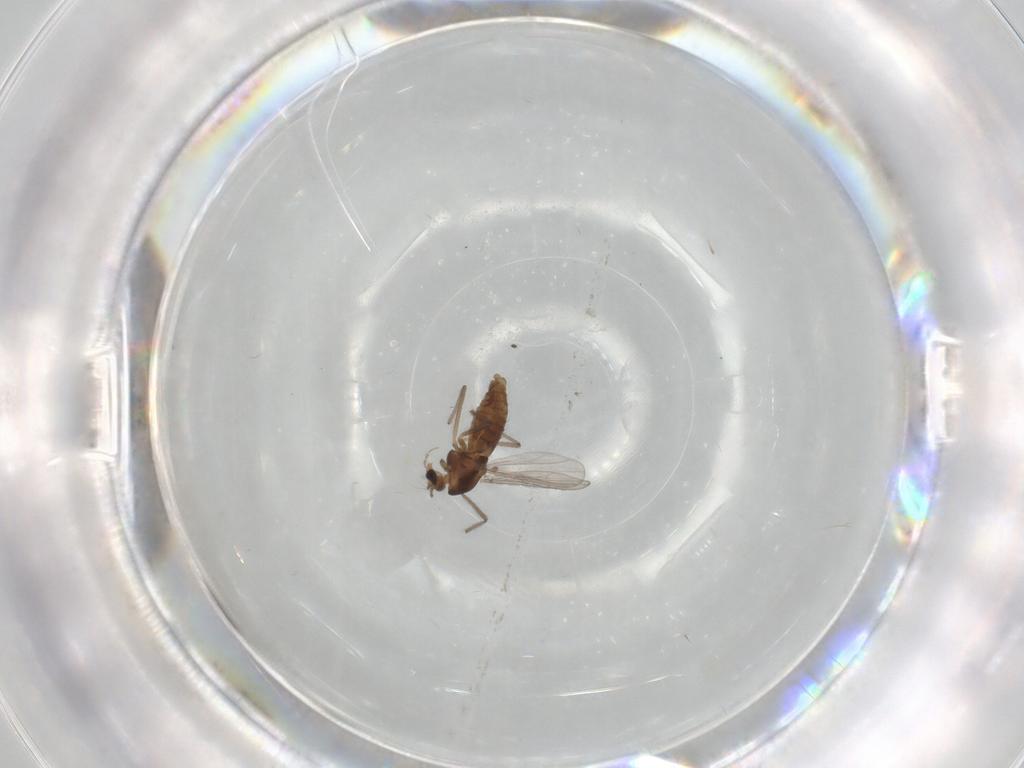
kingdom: Animalia
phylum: Arthropoda
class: Insecta
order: Diptera
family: Chironomidae
